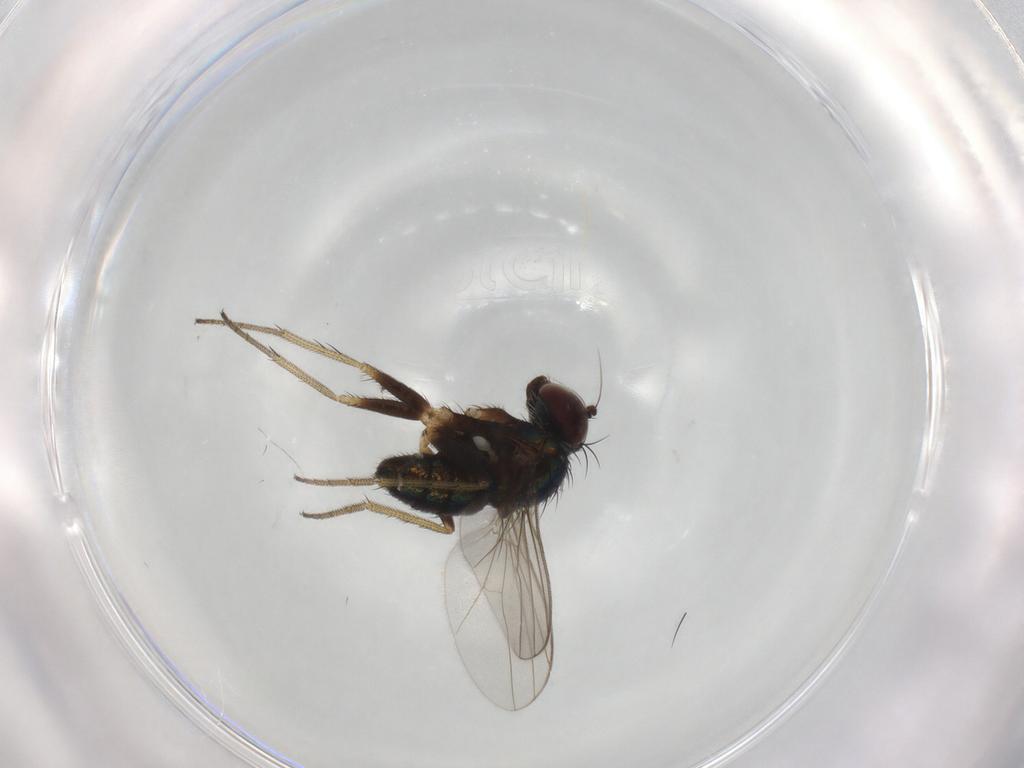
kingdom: Animalia
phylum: Arthropoda
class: Insecta
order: Diptera
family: Dolichopodidae
